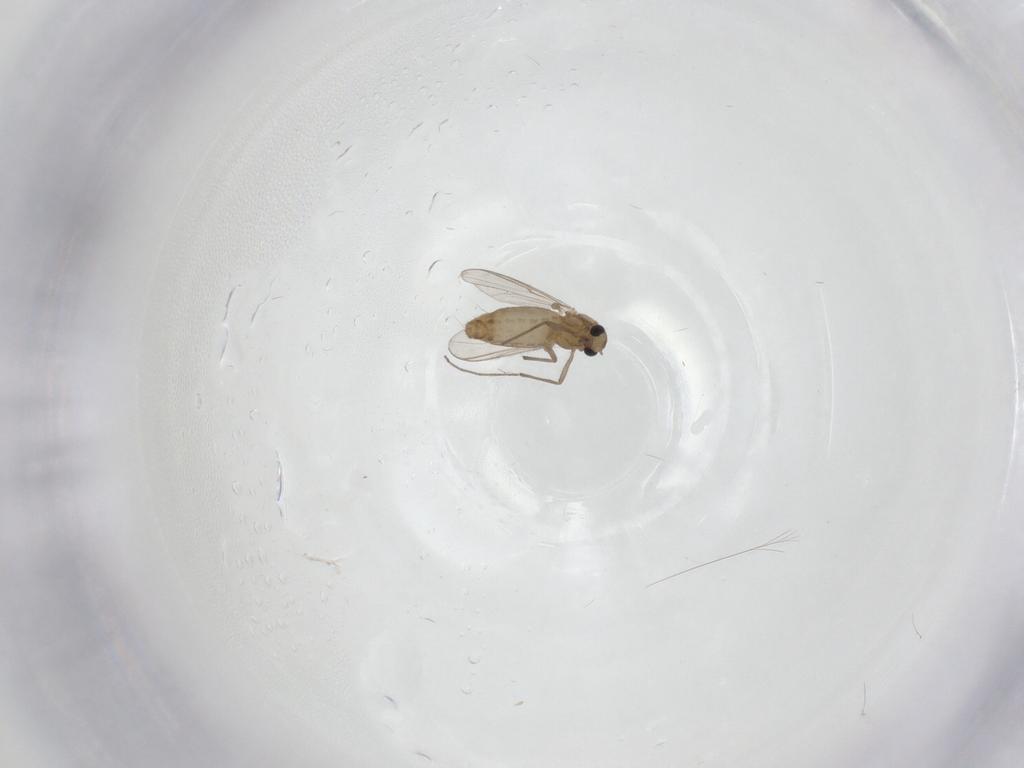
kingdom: Animalia
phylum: Arthropoda
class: Insecta
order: Diptera
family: Chironomidae
